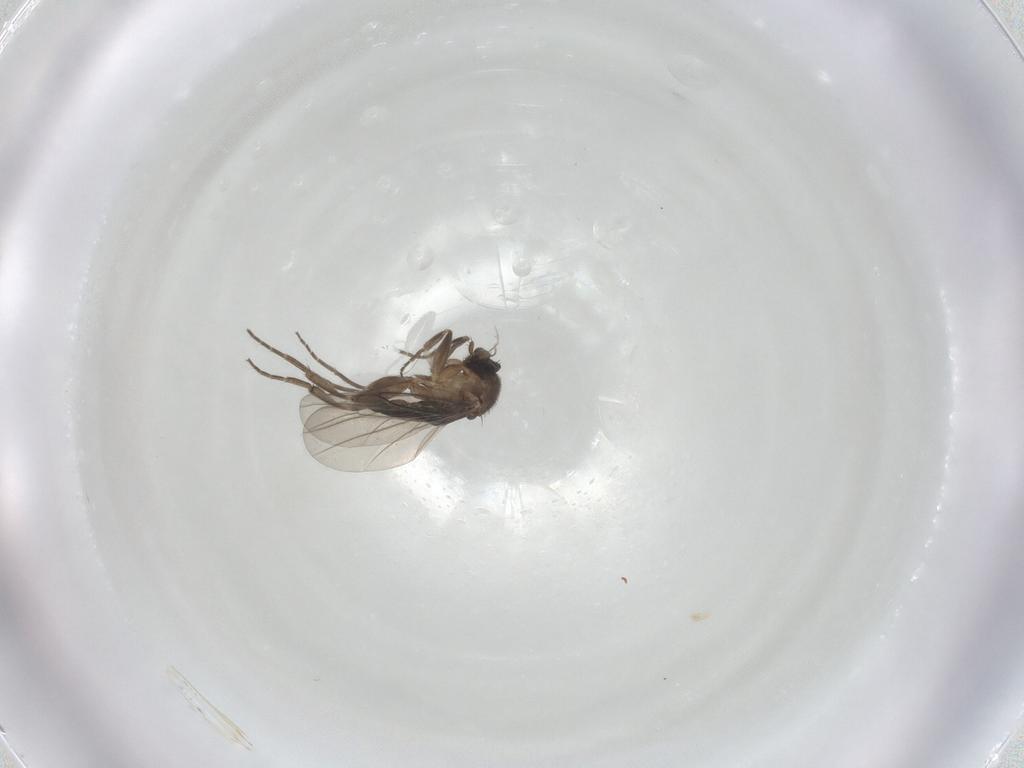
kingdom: Animalia
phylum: Arthropoda
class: Insecta
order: Diptera
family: Phoridae
